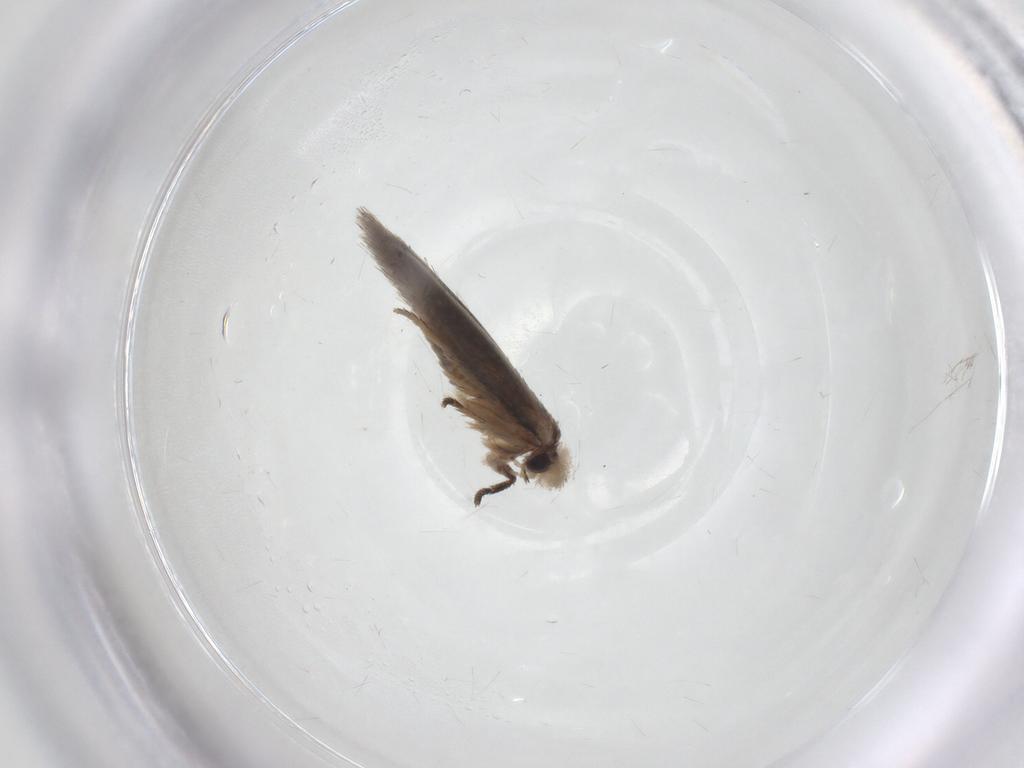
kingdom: Animalia
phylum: Arthropoda
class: Insecta
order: Lepidoptera
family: Nepticulidae
